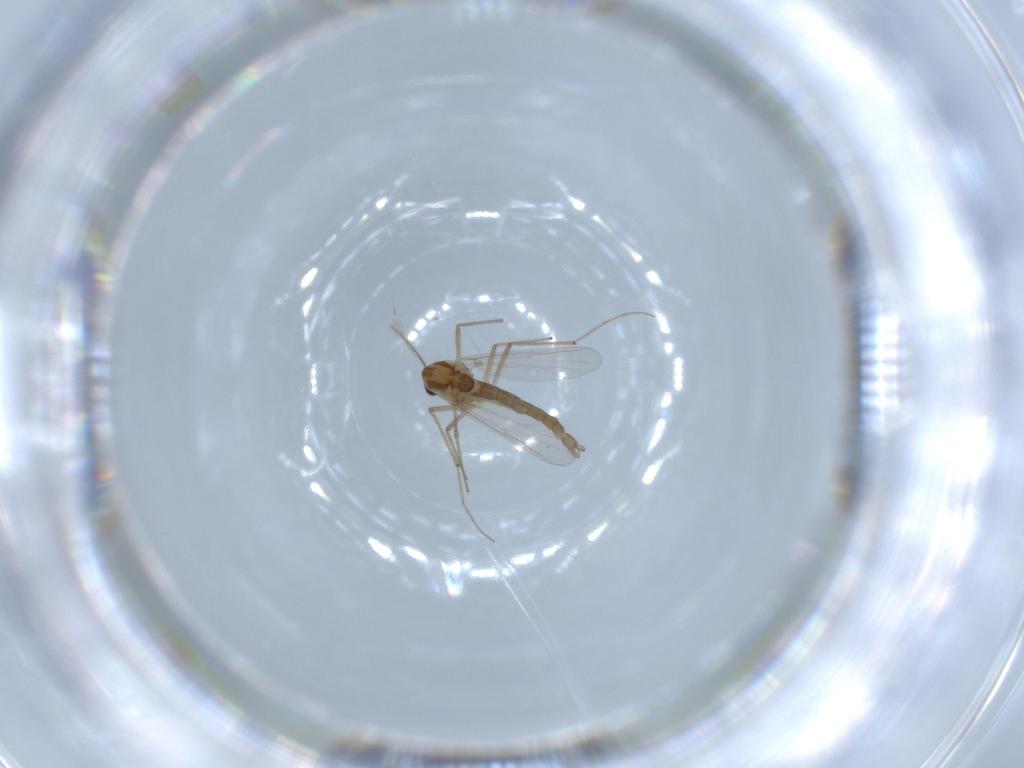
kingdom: Animalia
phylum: Arthropoda
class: Insecta
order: Diptera
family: Chironomidae
